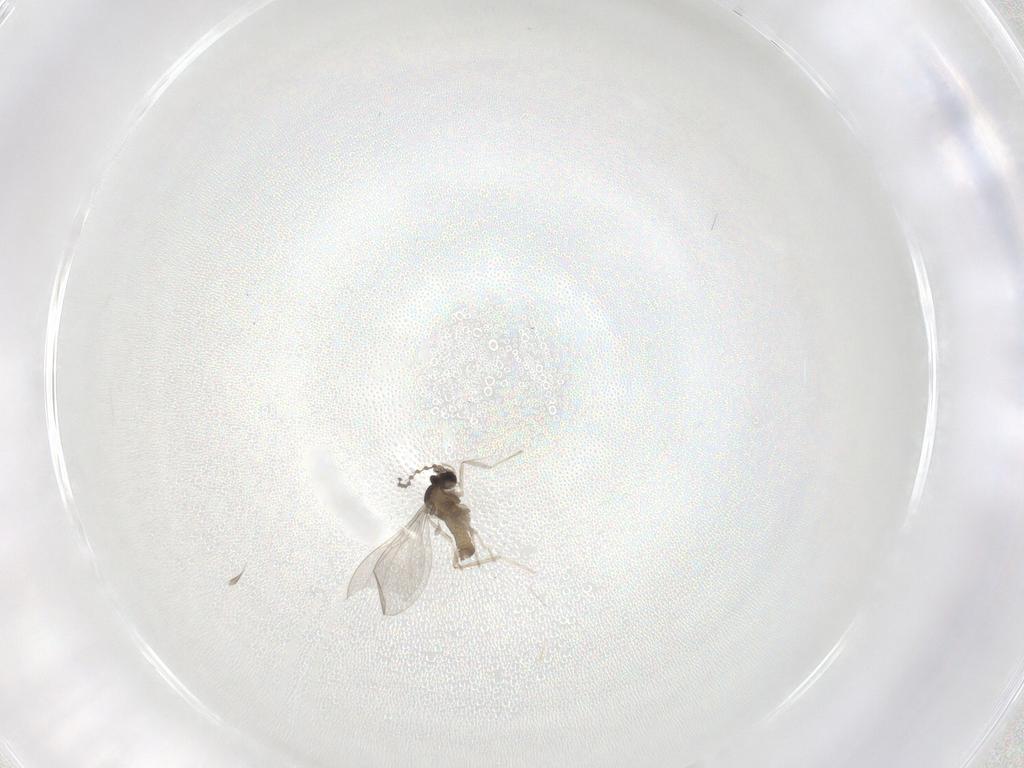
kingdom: Animalia
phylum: Arthropoda
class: Insecta
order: Diptera
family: Cecidomyiidae
